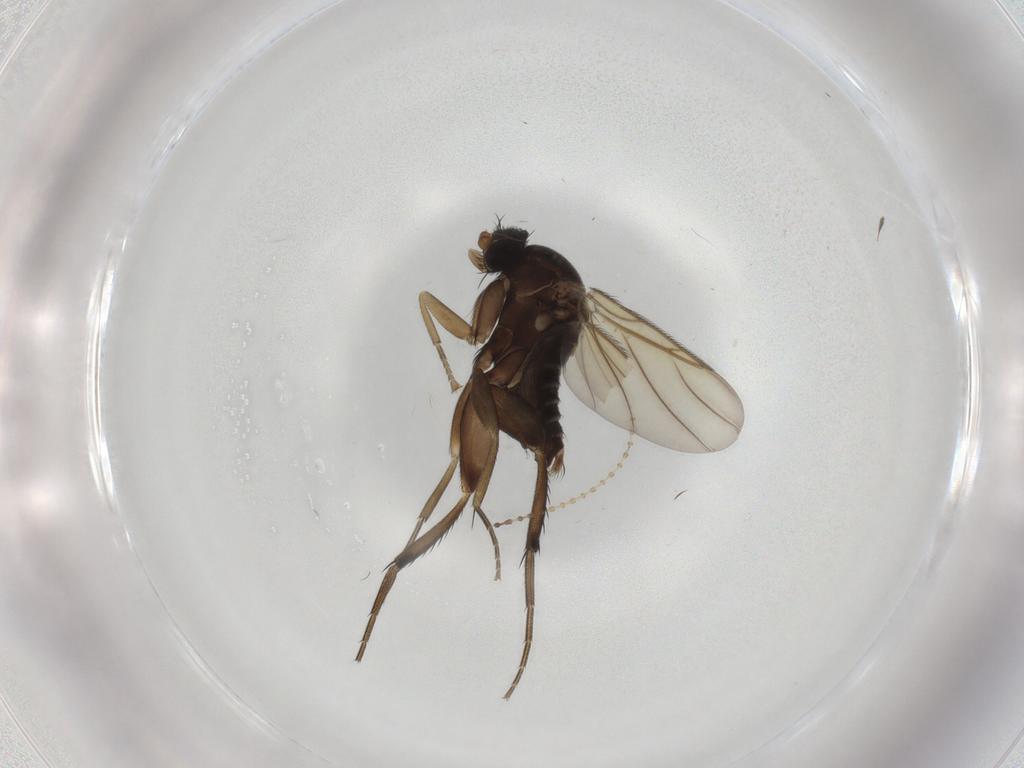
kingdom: Animalia
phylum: Arthropoda
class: Insecta
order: Diptera
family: Phoridae
